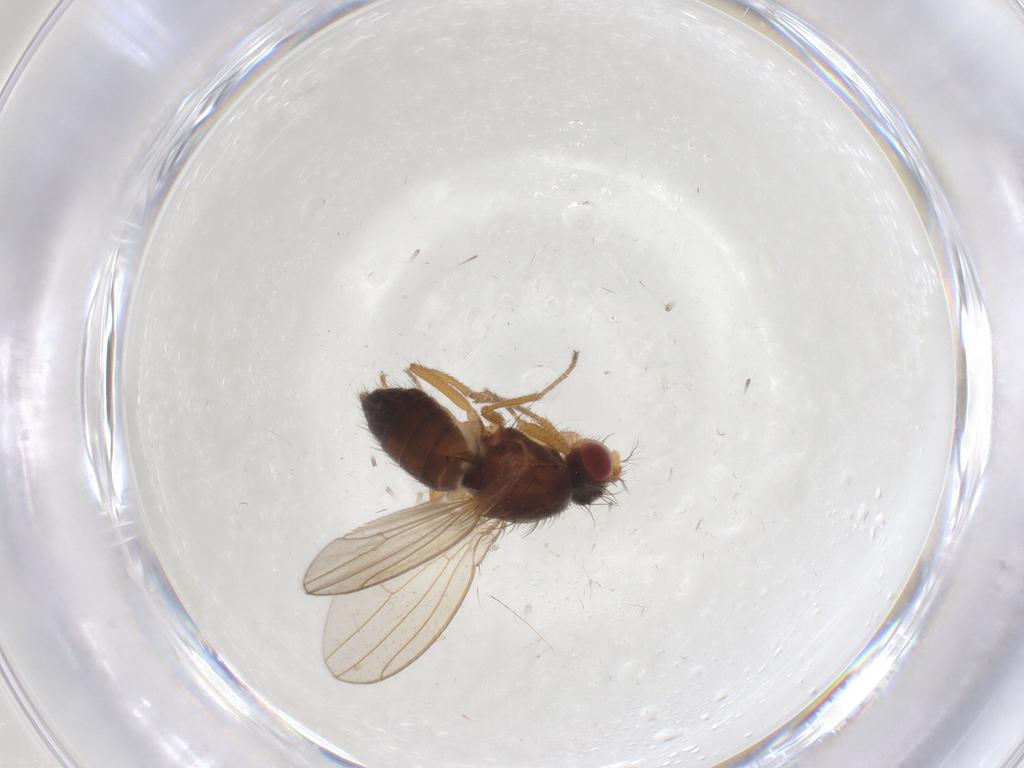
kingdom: Animalia
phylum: Arthropoda
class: Insecta
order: Diptera
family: Drosophilidae
